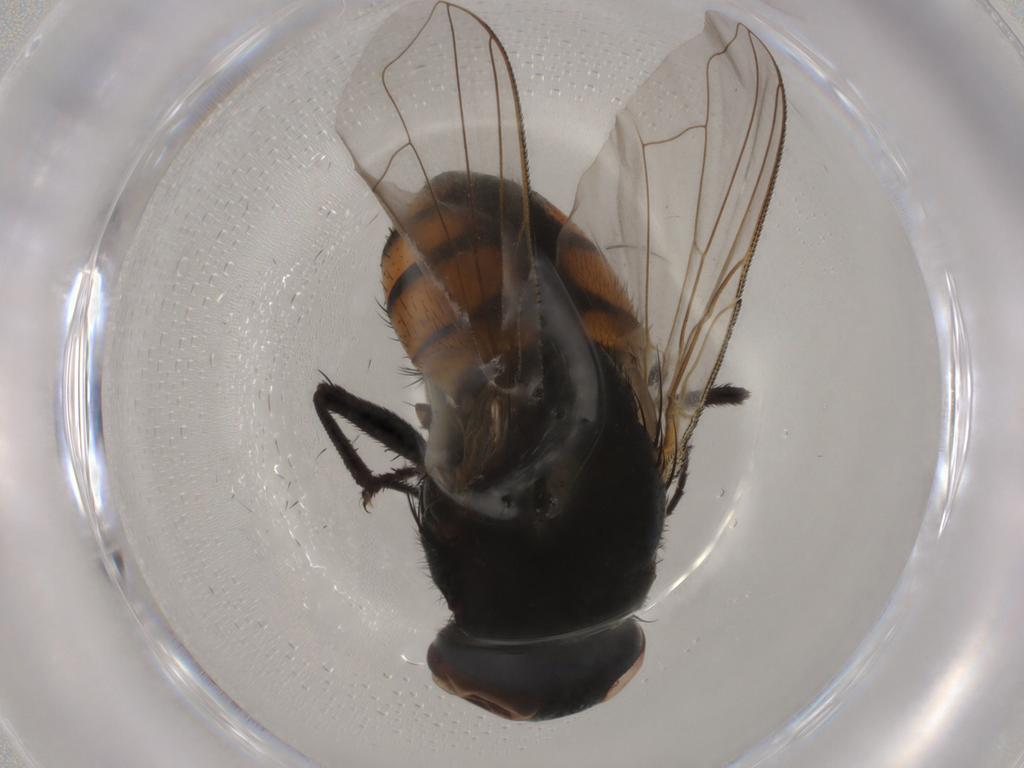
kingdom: Animalia
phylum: Arthropoda
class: Insecta
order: Diptera
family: Muscidae
